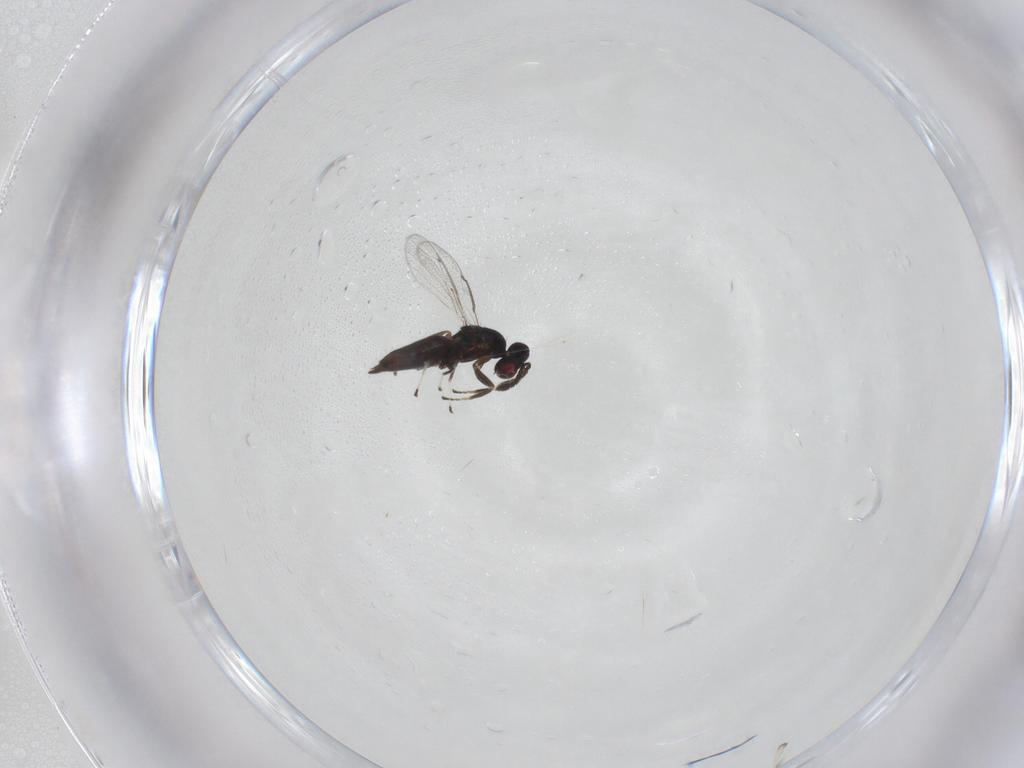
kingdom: Animalia
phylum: Arthropoda
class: Insecta
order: Hymenoptera
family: Eulophidae
